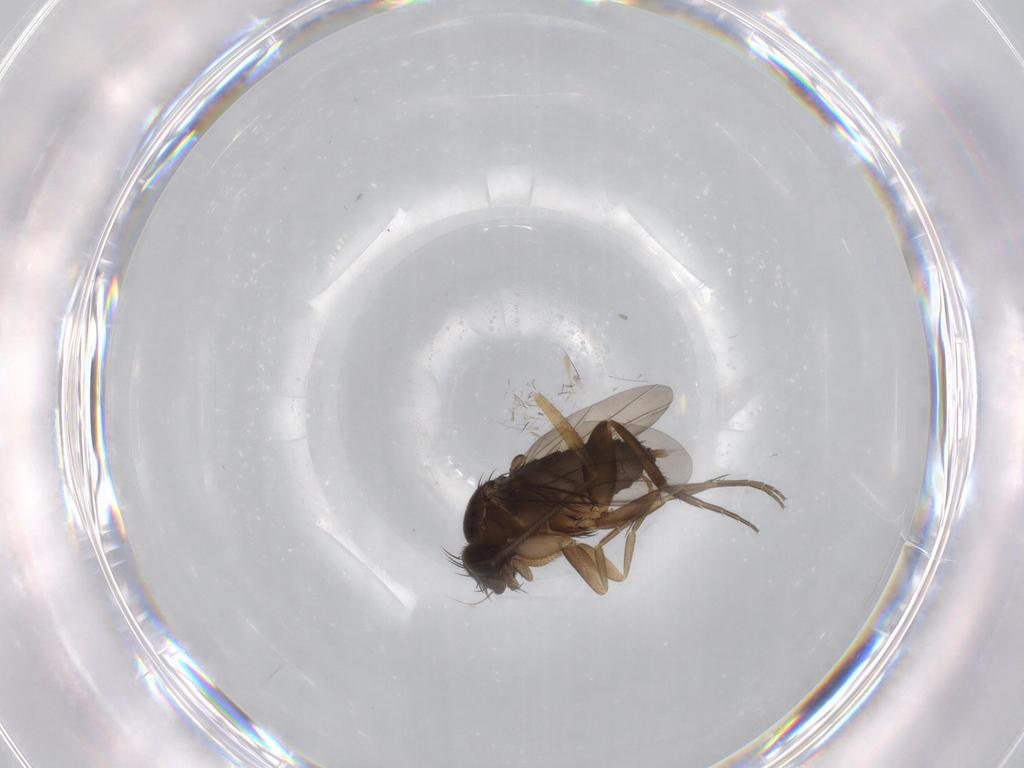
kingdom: Animalia
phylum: Arthropoda
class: Insecta
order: Diptera
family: Phoridae
